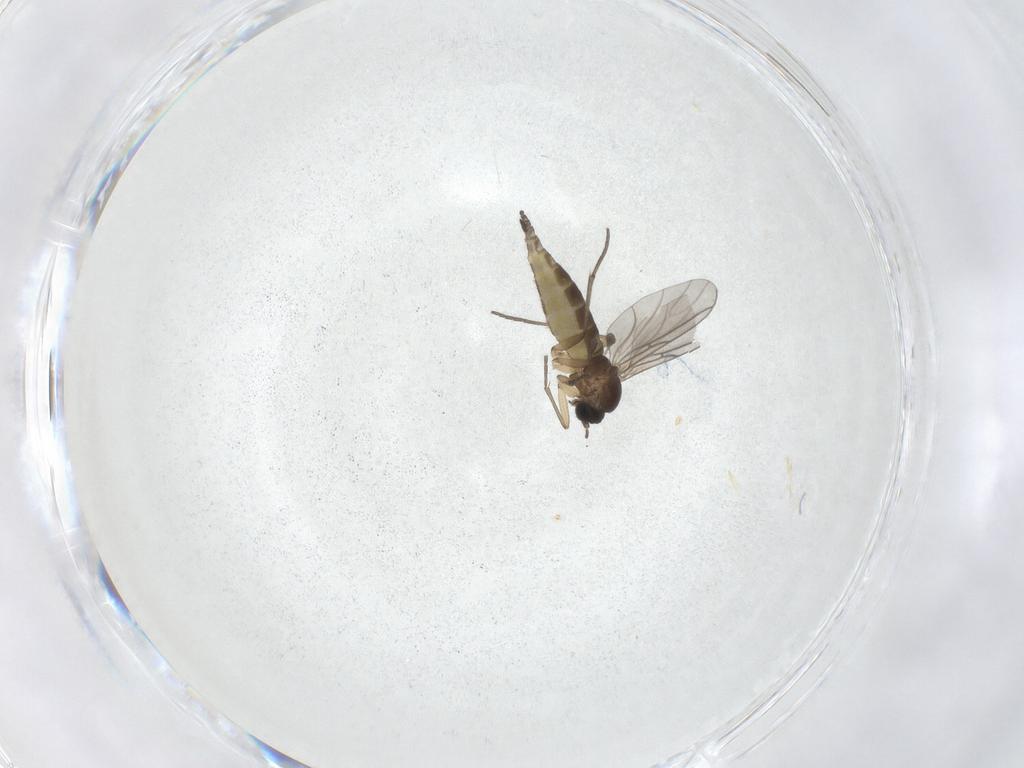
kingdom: Animalia
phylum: Arthropoda
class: Insecta
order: Diptera
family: Sciaridae
